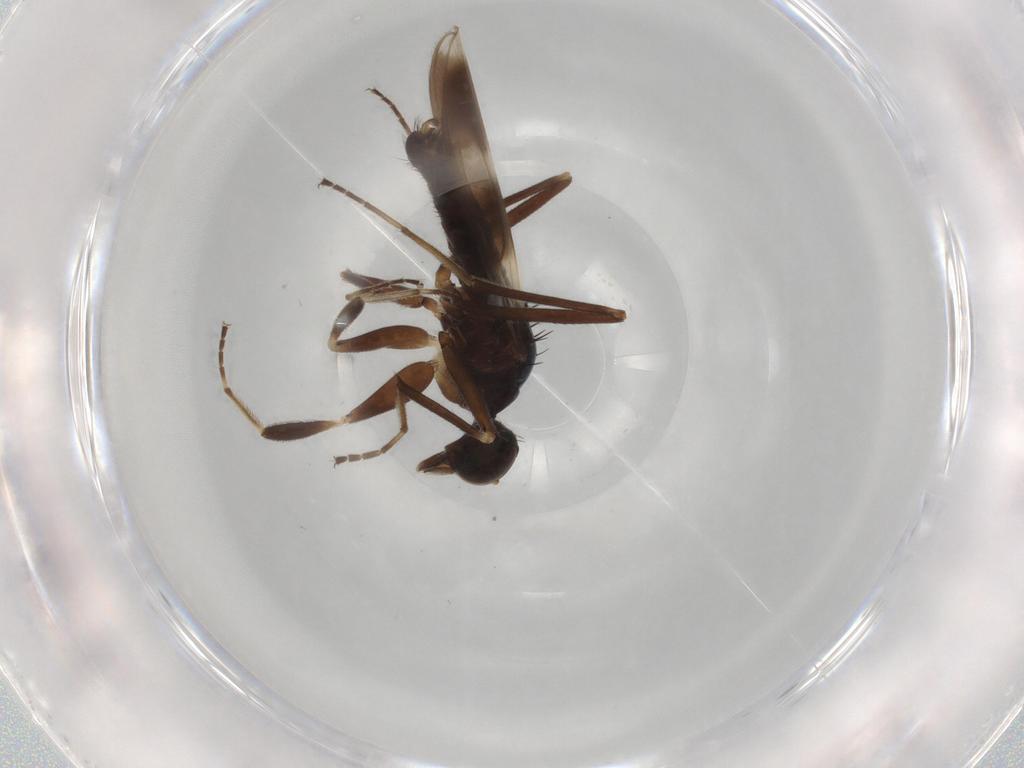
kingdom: Animalia
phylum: Arthropoda
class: Insecta
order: Diptera
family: Hybotidae
